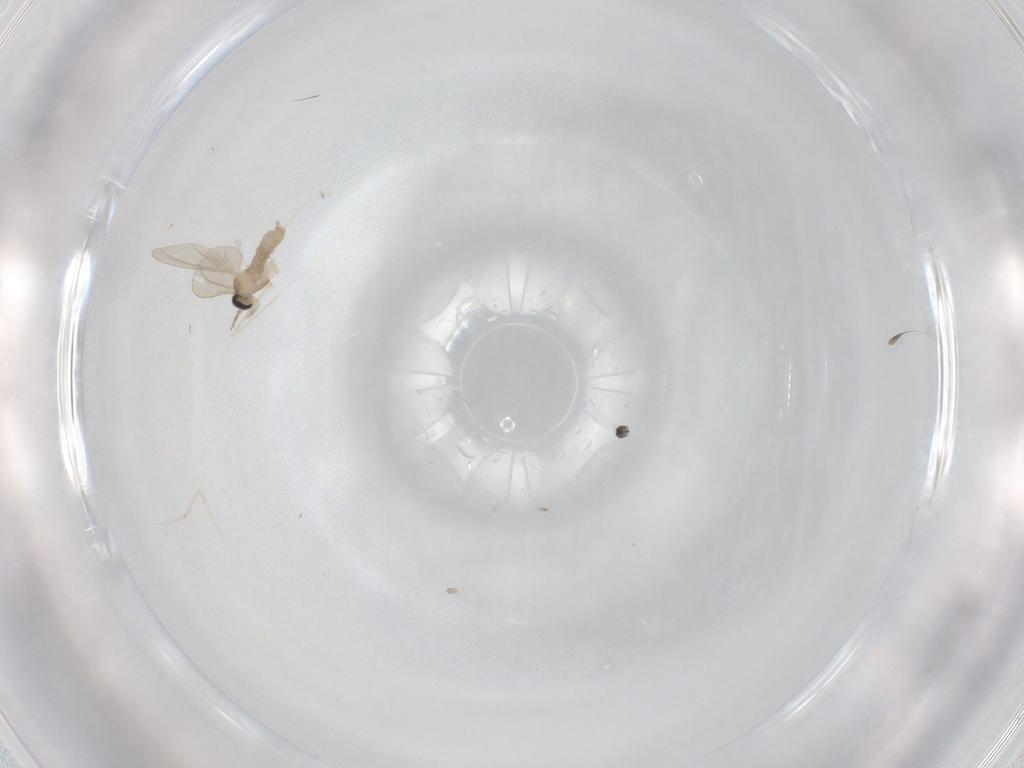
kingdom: Animalia
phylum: Arthropoda
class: Insecta
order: Diptera
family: Cecidomyiidae
